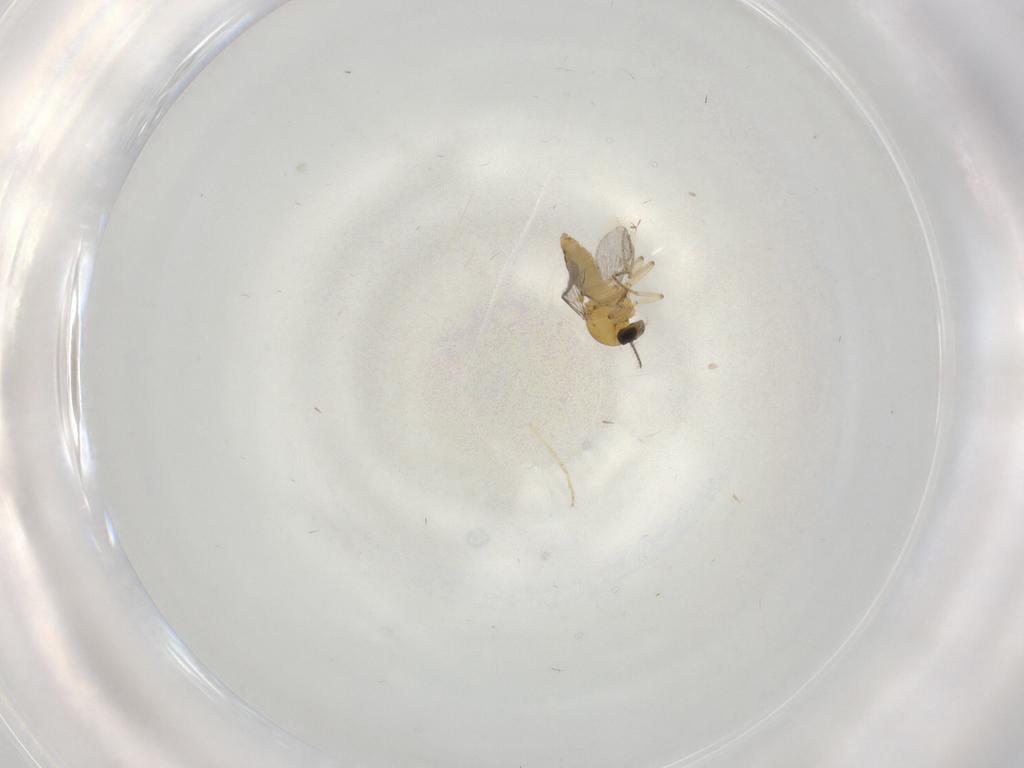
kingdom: Animalia
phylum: Arthropoda
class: Insecta
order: Diptera
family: Ceratopogonidae
